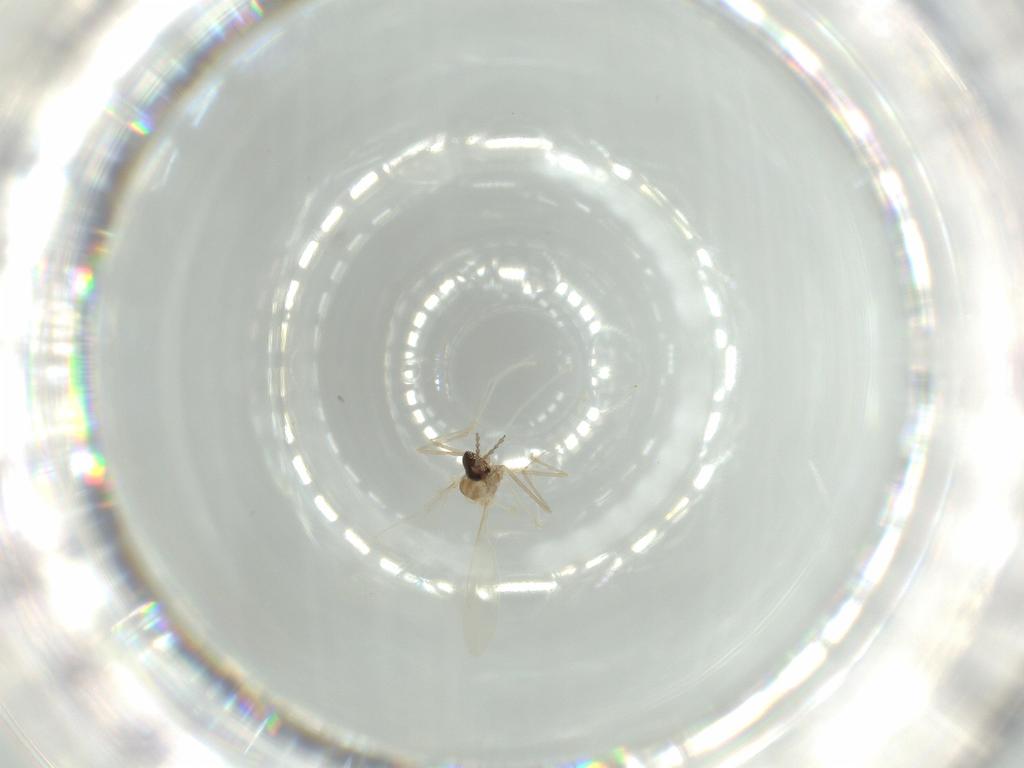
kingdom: Animalia
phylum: Arthropoda
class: Insecta
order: Diptera
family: Cecidomyiidae
